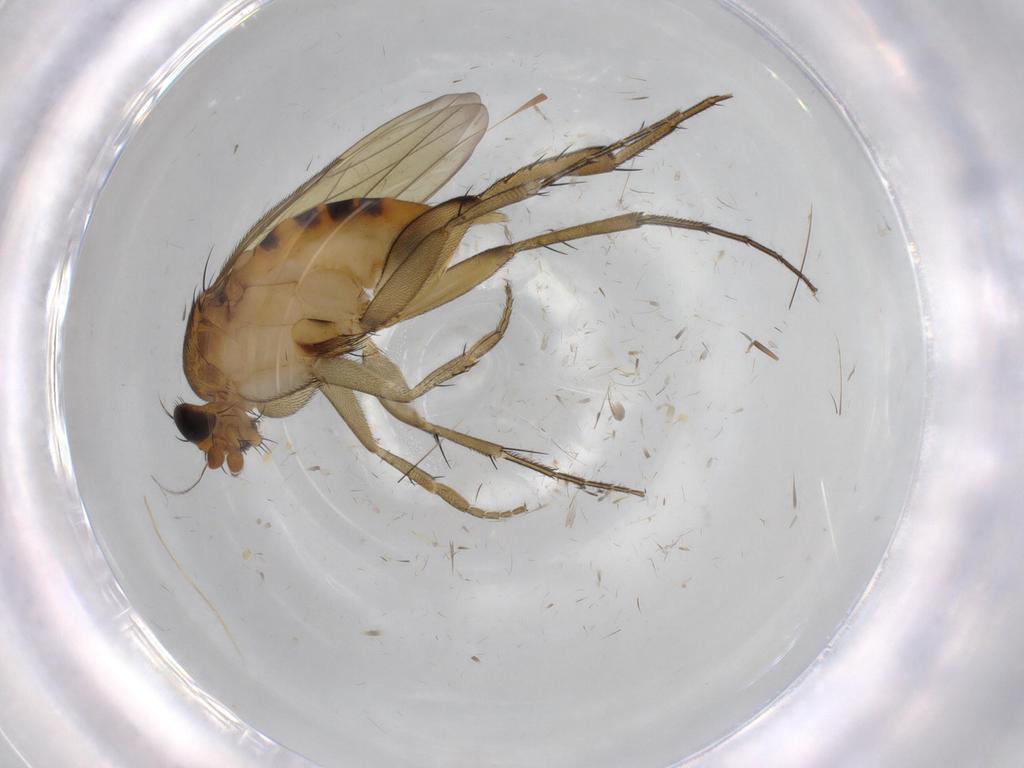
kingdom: Animalia
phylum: Arthropoda
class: Insecta
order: Diptera
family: Phoridae
